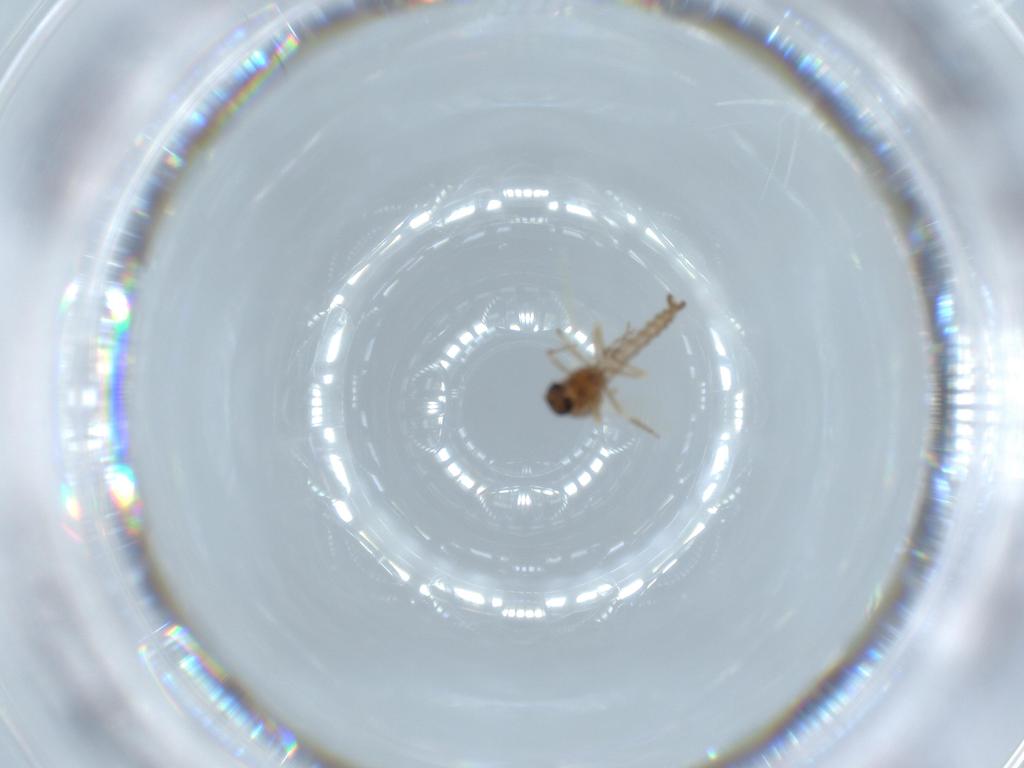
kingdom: Animalia
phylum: Arthropoda
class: Insecta
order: Diptera
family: Ceratopogonidae
